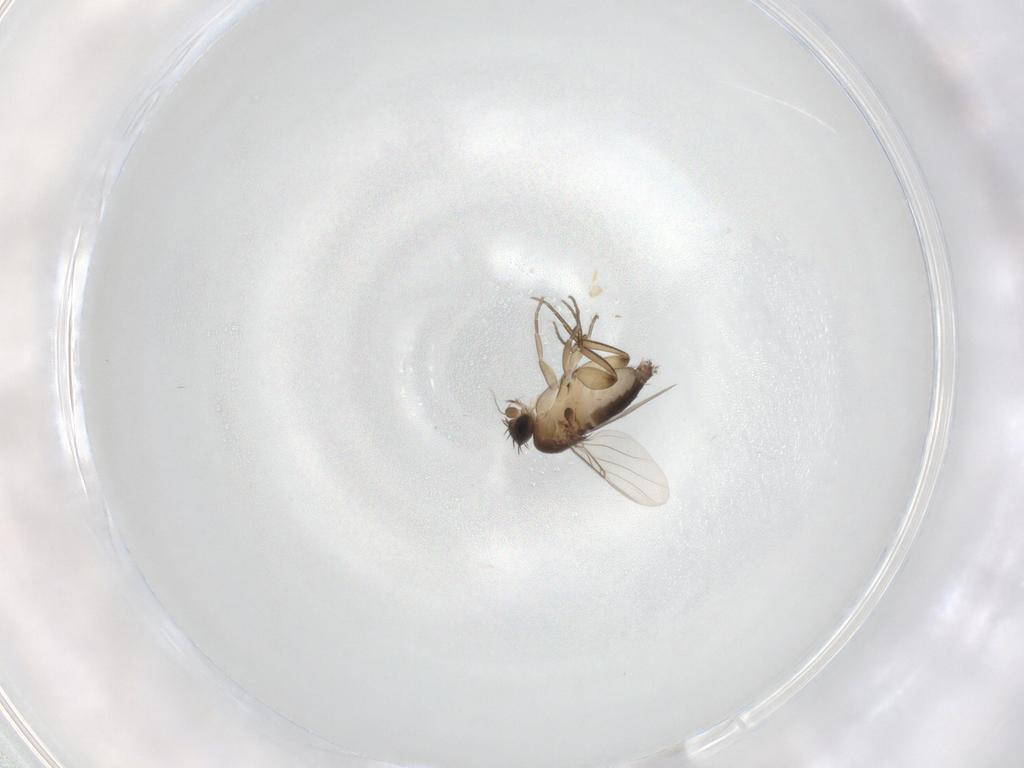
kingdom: Animalia
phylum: Arthropoda
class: Insecta
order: Diptera
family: Phoridae
